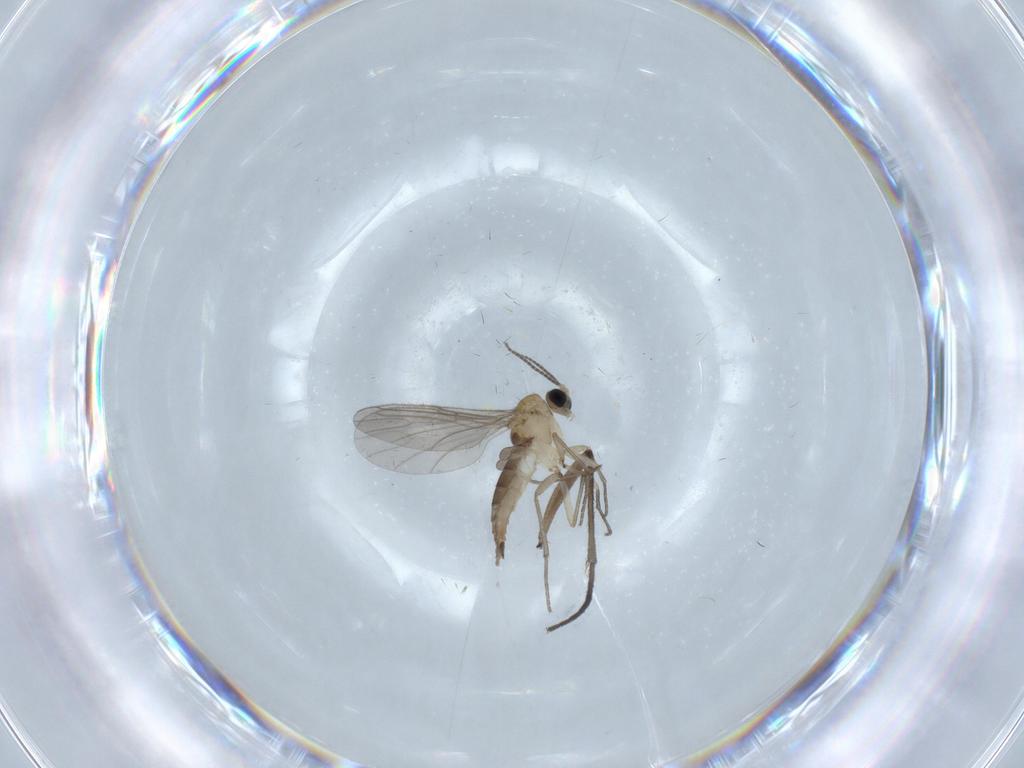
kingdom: Animalia
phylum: Arthropoda
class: Insecta
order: Diptera
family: Sciaridae
